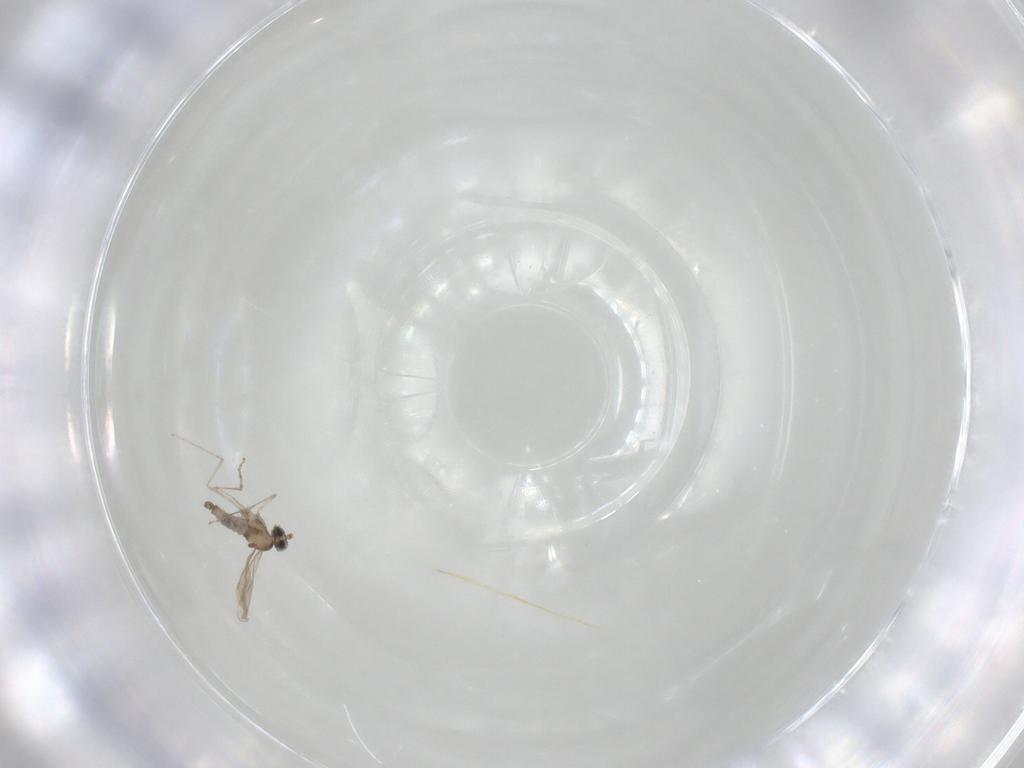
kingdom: Animalia
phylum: Arthropoda
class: Insecta
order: Diptera
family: Cecidomyiidae
